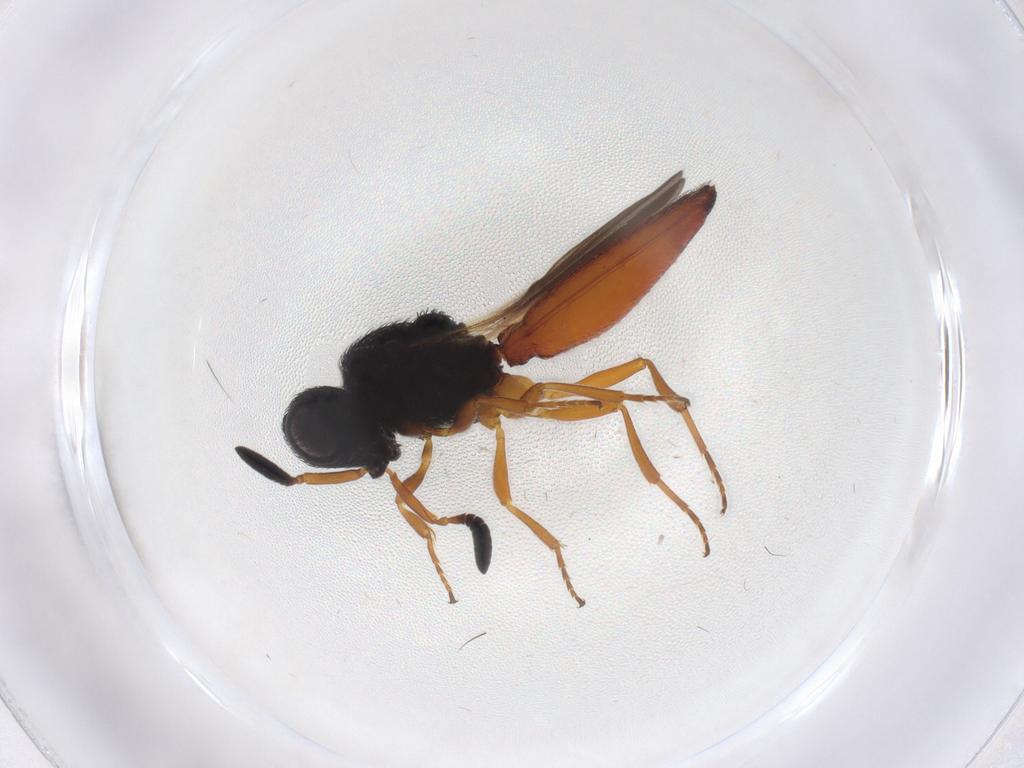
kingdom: Animalia
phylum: Arthropoda
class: Insecta
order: Hymenoptera
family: Scelionidae
